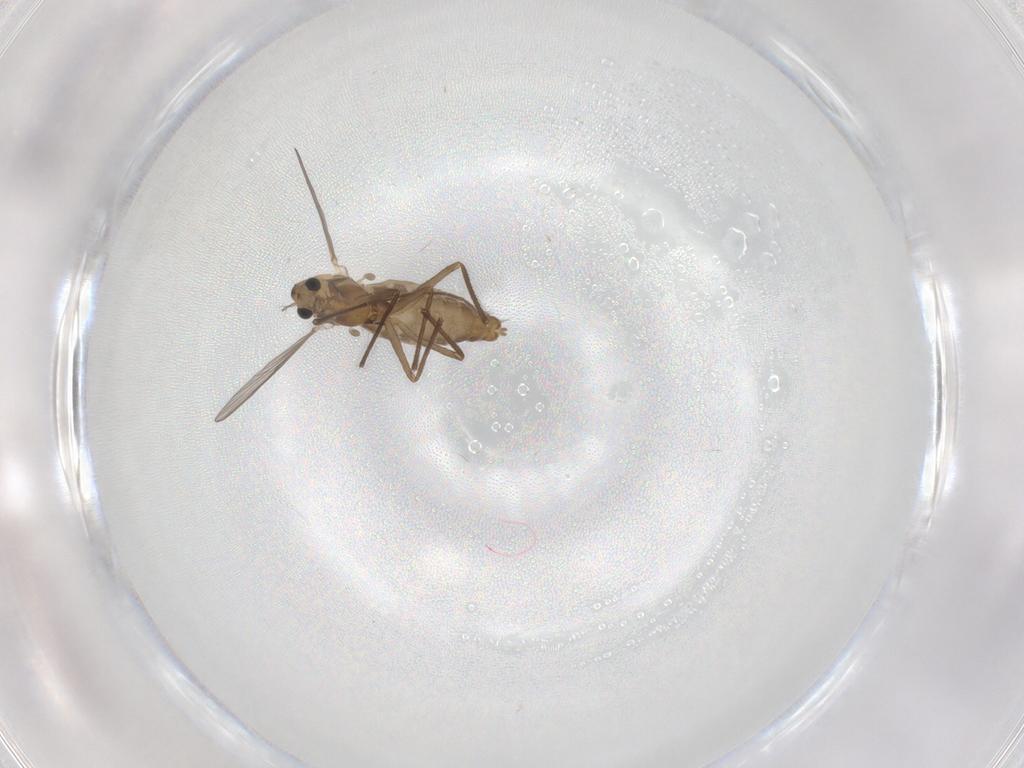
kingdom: Animalia
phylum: Arthropoda
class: Insecta
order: Diptera
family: Chironomidae
